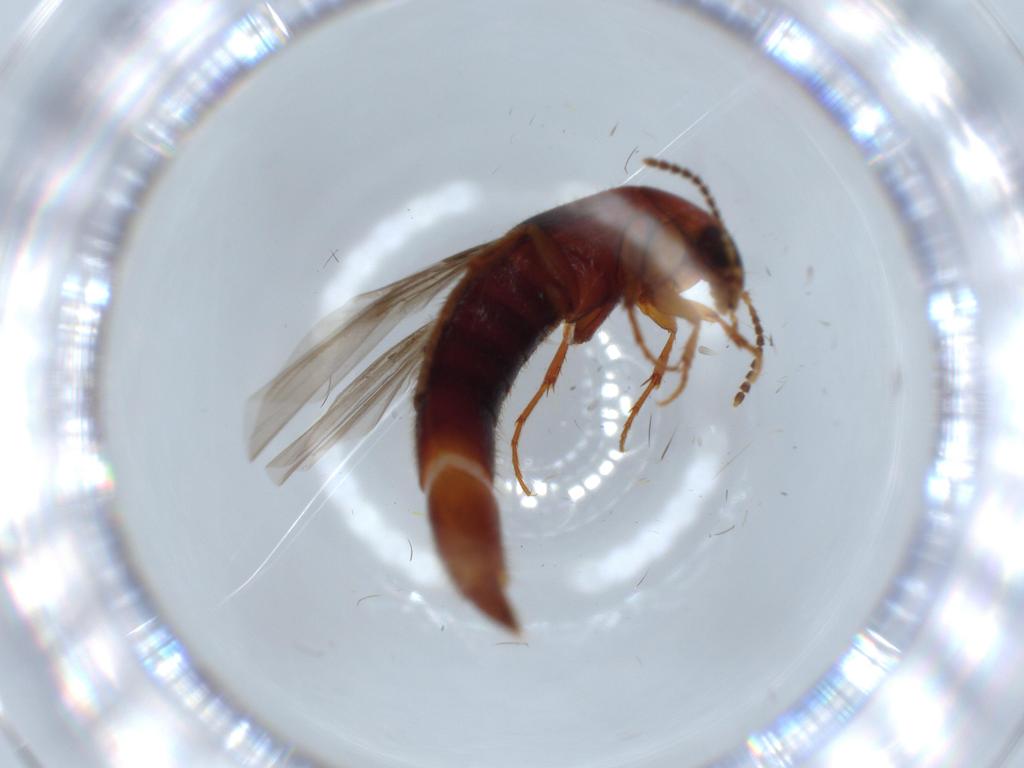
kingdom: Animalia
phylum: Arthropoda
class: Insecta
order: Coleoptera
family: Staphylinidae
